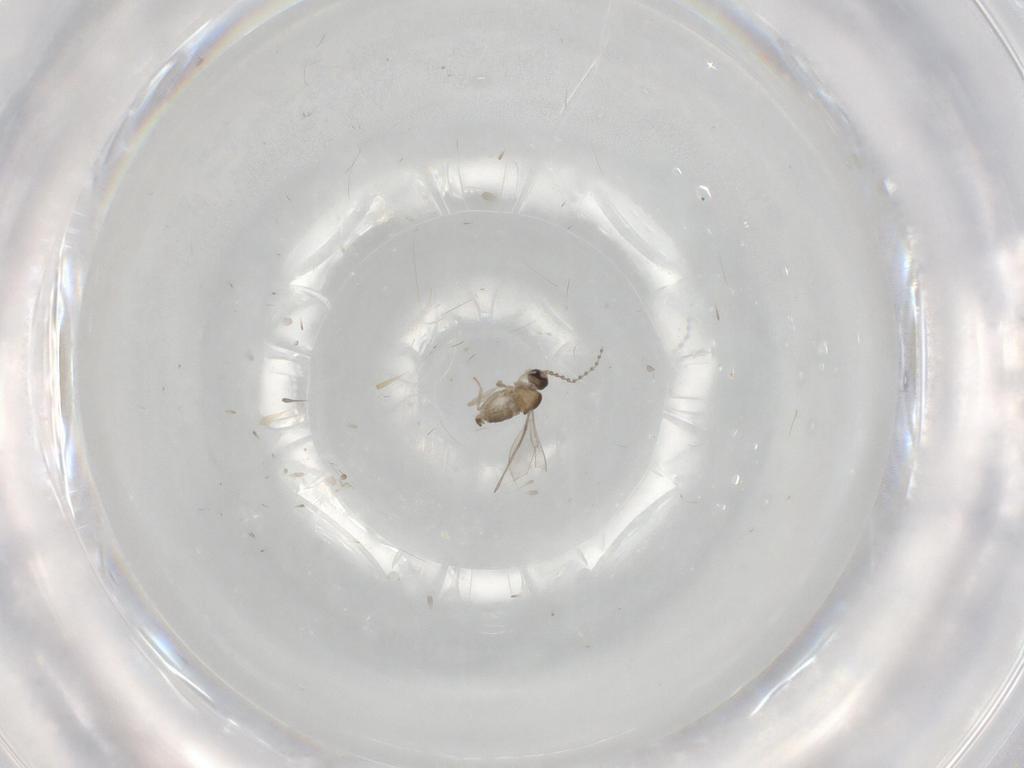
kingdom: Animalia
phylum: Arthropoda
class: Insecta
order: Diptera
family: Cecidomyiidae
